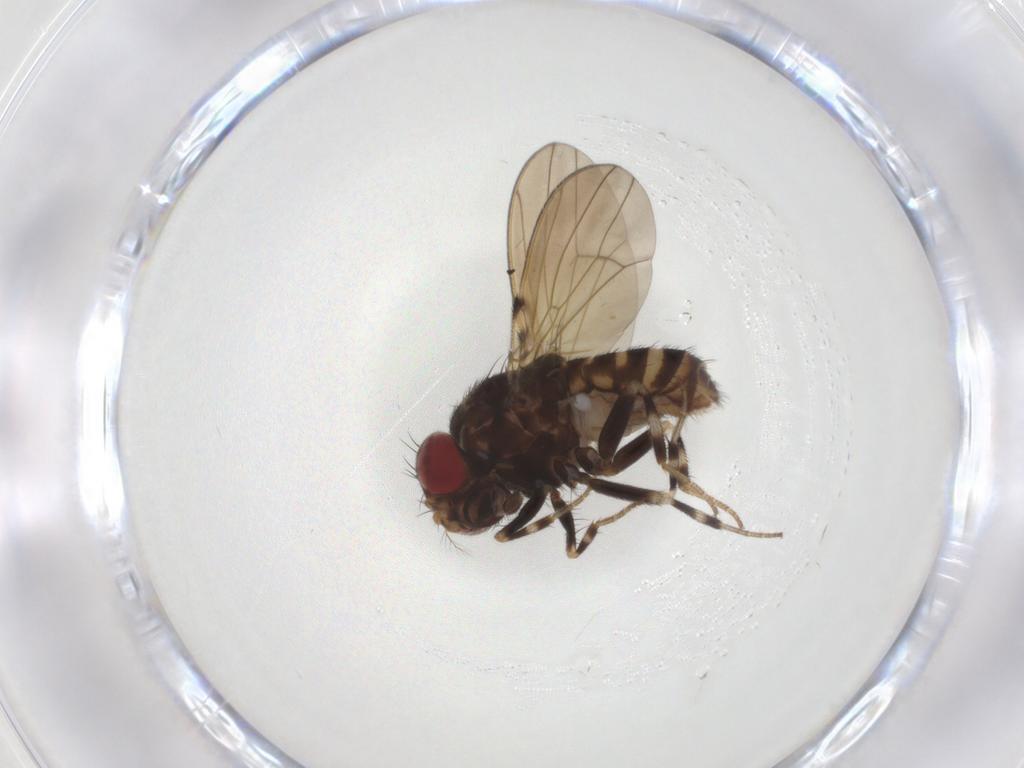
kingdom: Animalia
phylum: Arthropoda
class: Insecta
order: Diptera
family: Drosophilidae
